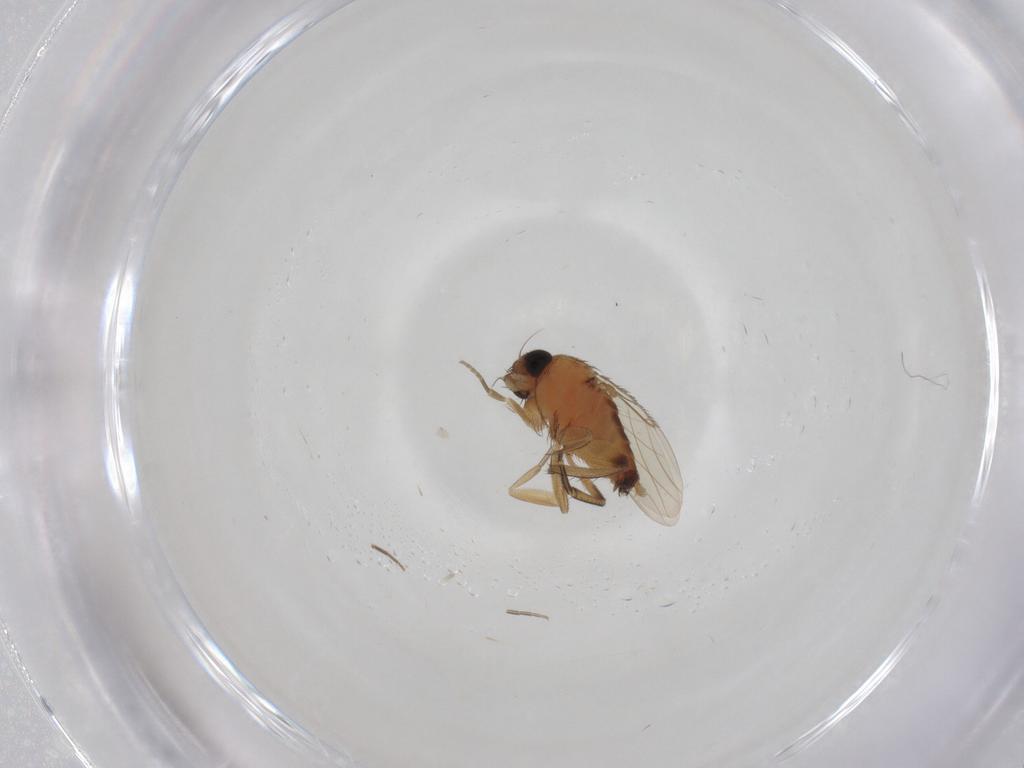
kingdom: Animalia
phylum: Arthropoda
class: Insecta
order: Diptera
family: Phoridae
